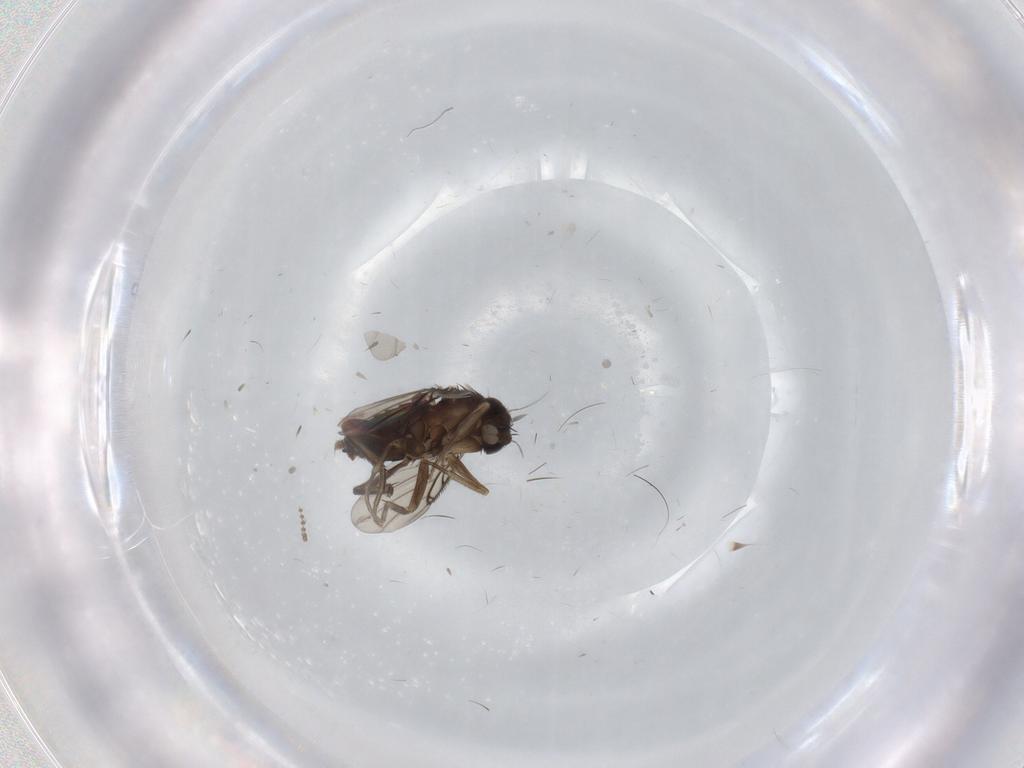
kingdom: Animalia
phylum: Arthropoda
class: Insecta
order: Diptera
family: Phoridae
